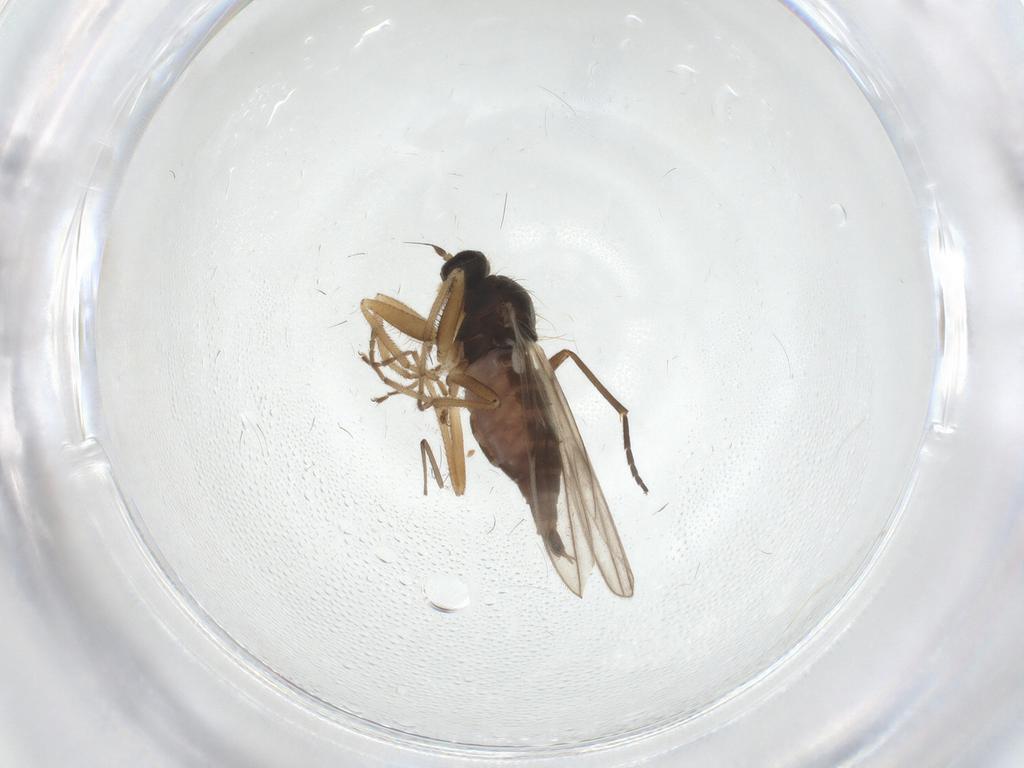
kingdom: Animalia
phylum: Arthropoda
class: Insecta
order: Diptera
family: Hybotidae
